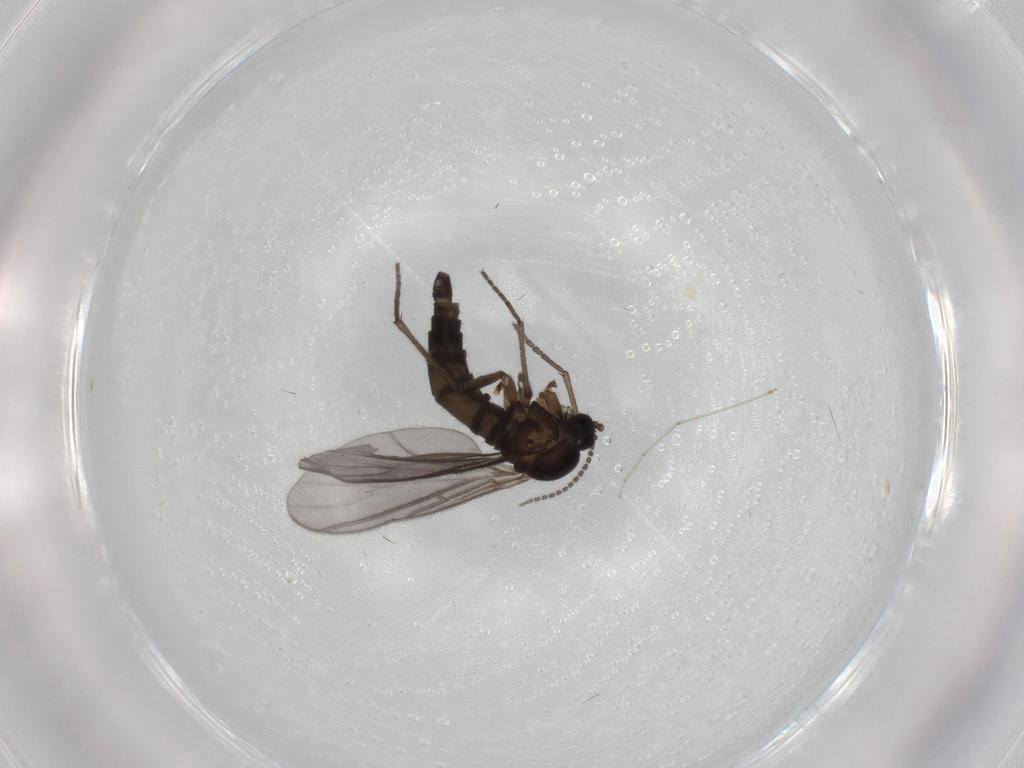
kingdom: Animalia
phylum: Arthropoda
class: Insecta
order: Diptera
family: Sciaridae
